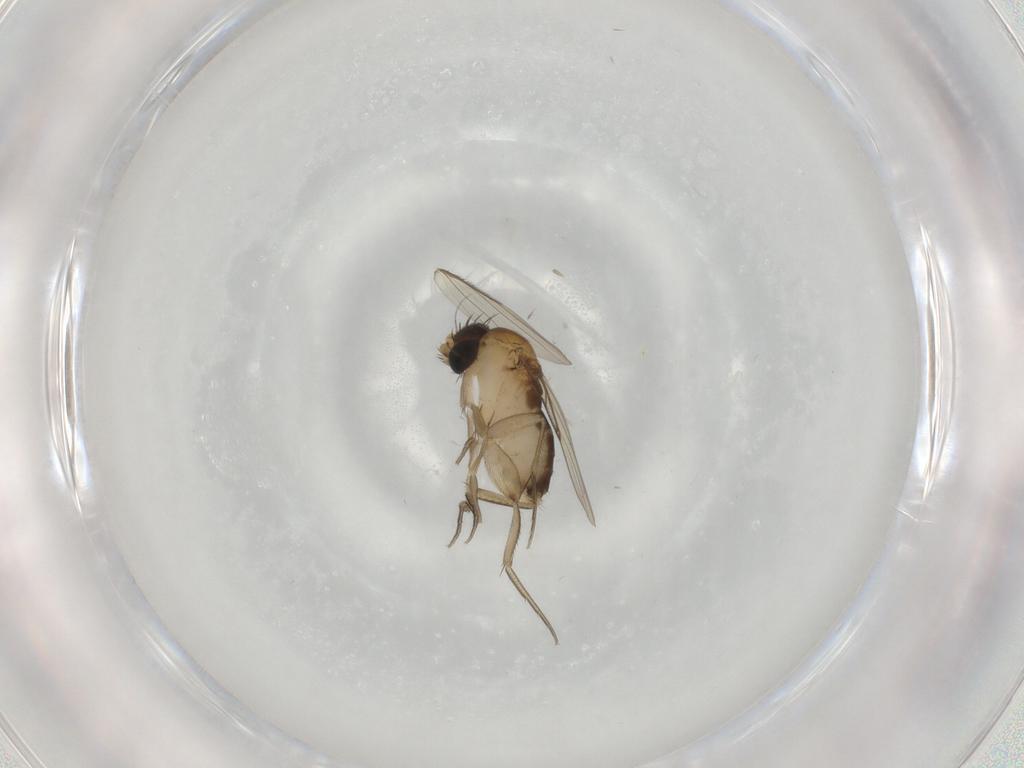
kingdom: Animalia
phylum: Arthropoda
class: Insecta
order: Diptera
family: Phoridae
